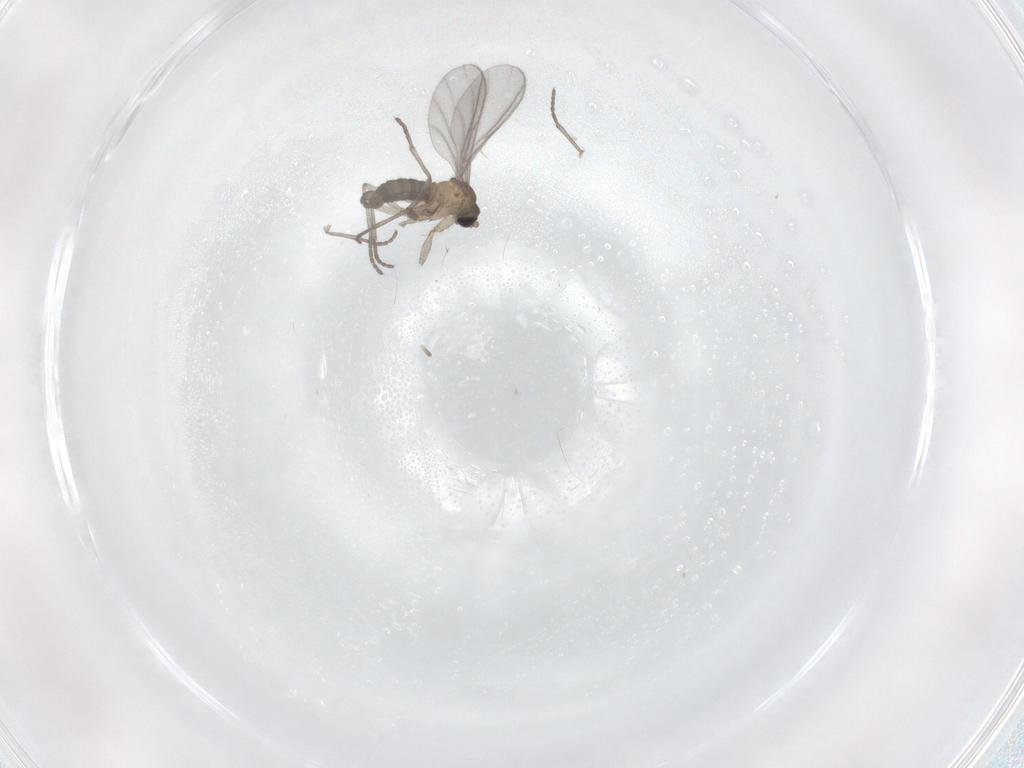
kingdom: Animalia
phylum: Arthropoda
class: Insecta
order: Diptera
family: Sciaridae
